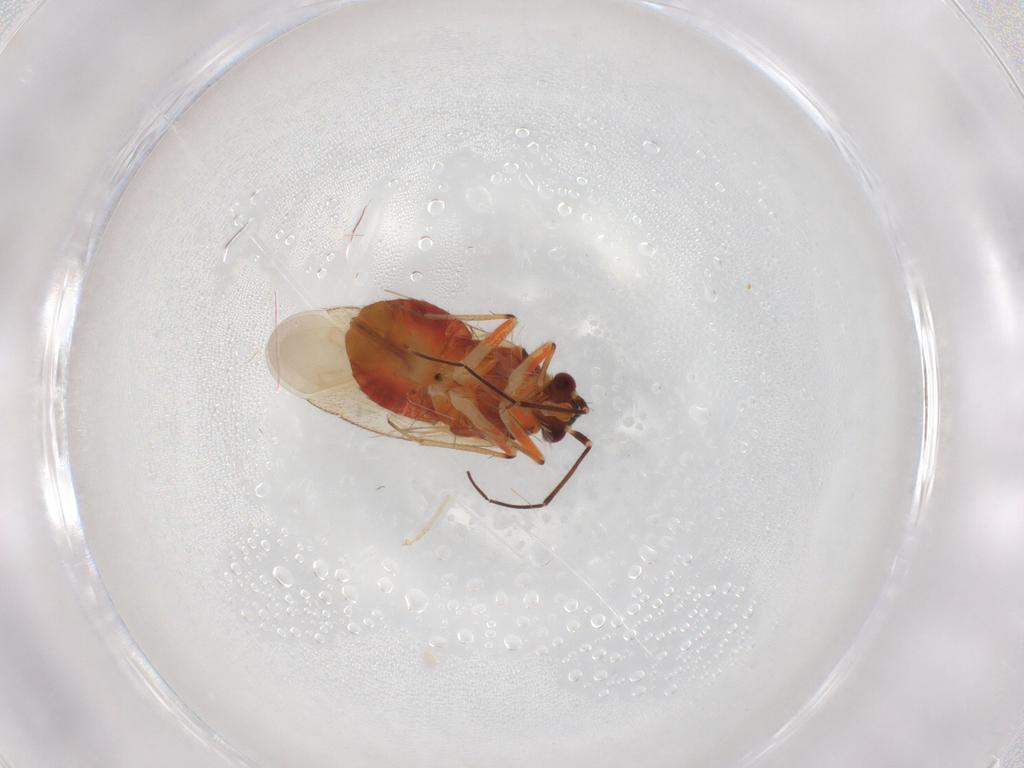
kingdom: Animalia
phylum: Arthropoda
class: Insecta
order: Hemiptera
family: Miridae
